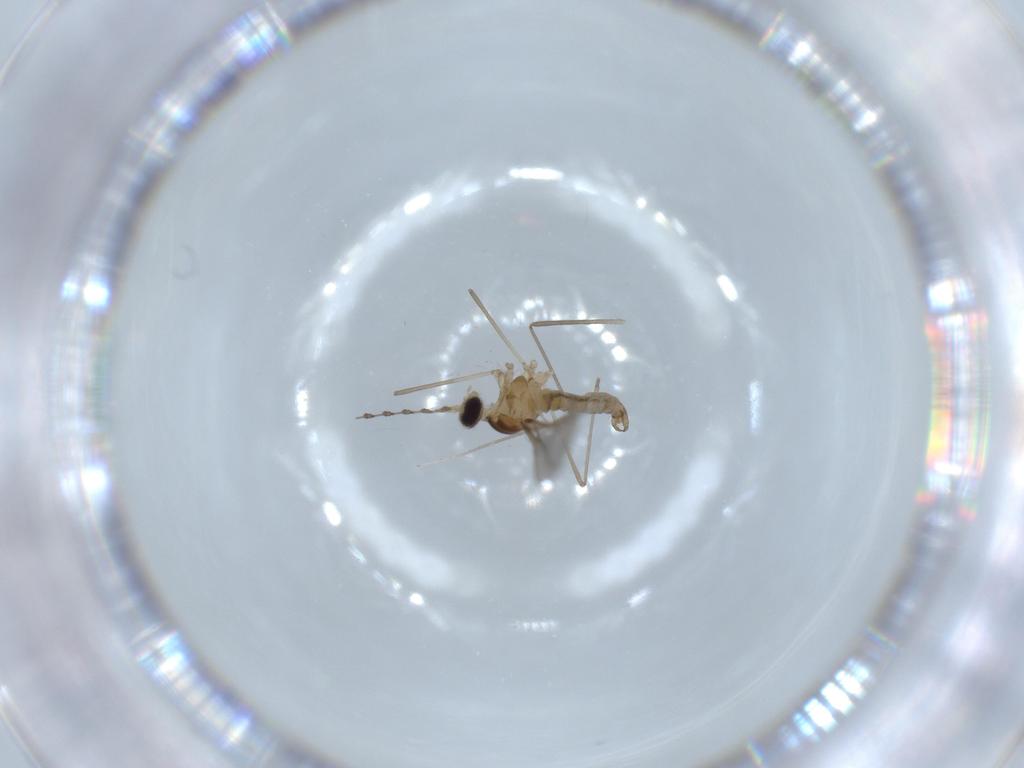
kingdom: Animalia
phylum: Arthropoda
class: Insecta
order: Diptera
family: Cecidomyiidae
